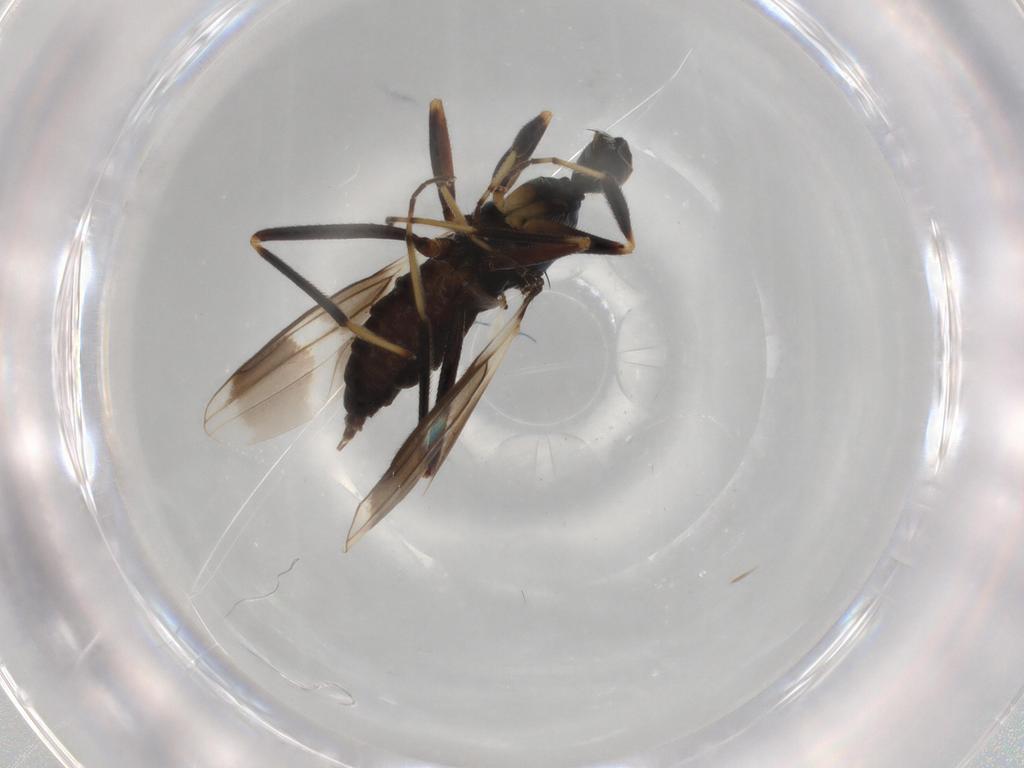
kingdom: Animalia
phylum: Arthropoda
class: Insecta
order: Diptera
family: Hybotidae
